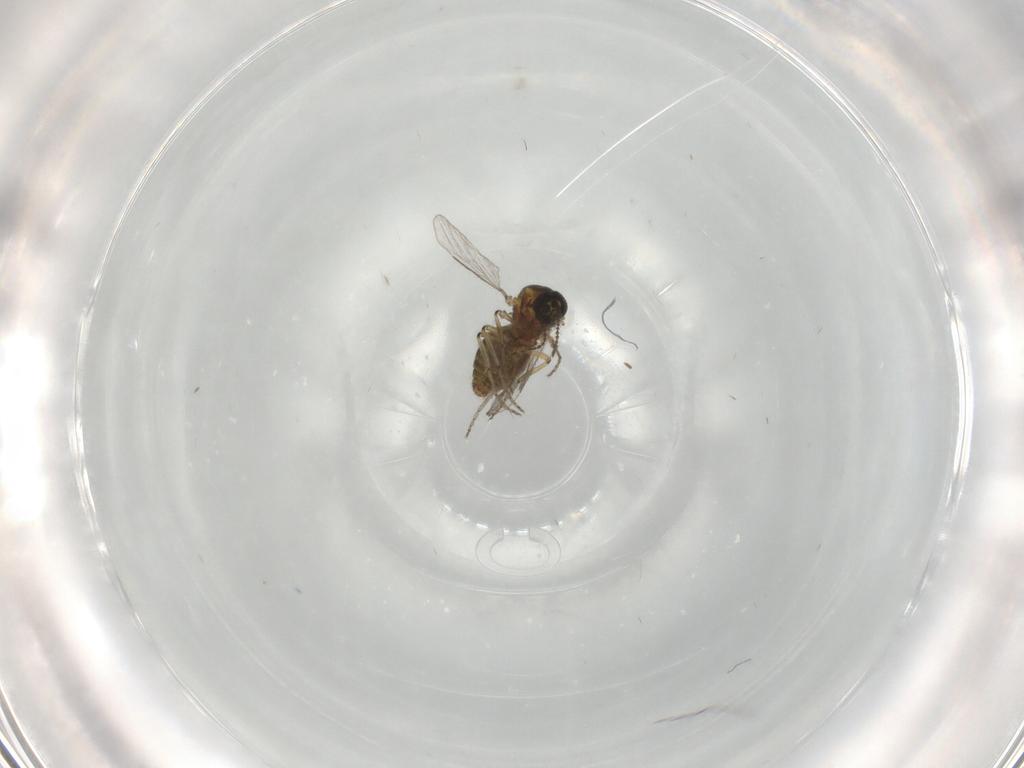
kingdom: Animalia
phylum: Arthropoda
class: Insecta
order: Diptera
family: Ceratopogonidae
